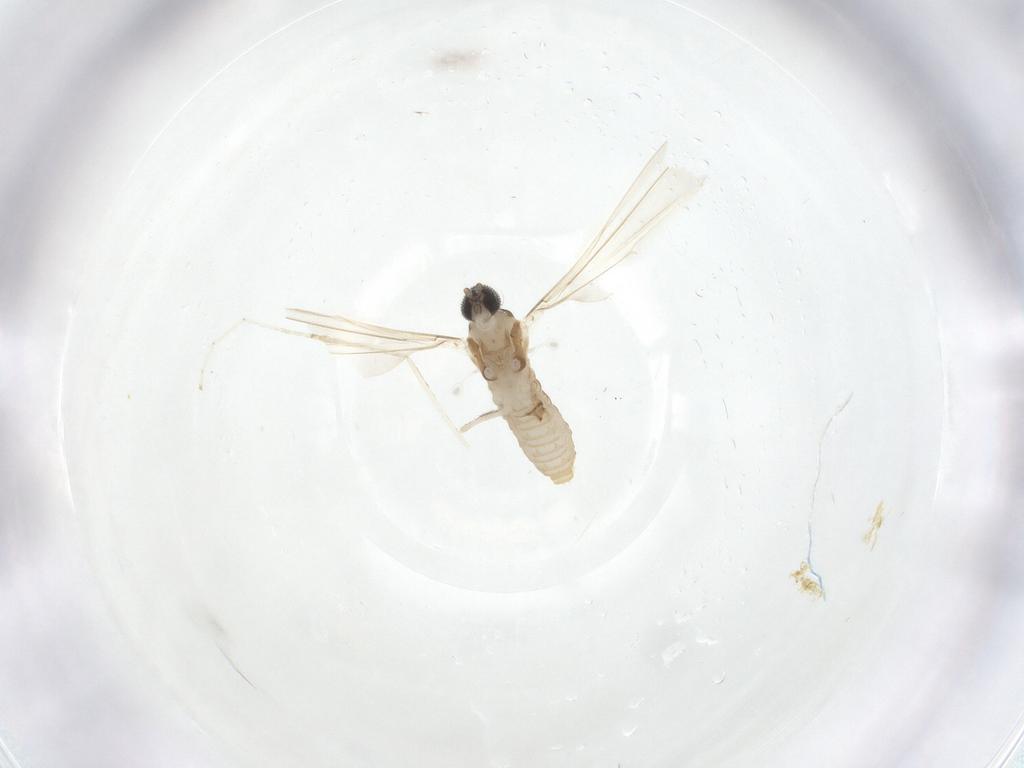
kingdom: Animalia
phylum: Arthropoda
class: Insecta
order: Diptera
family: Cecidomyiidae
